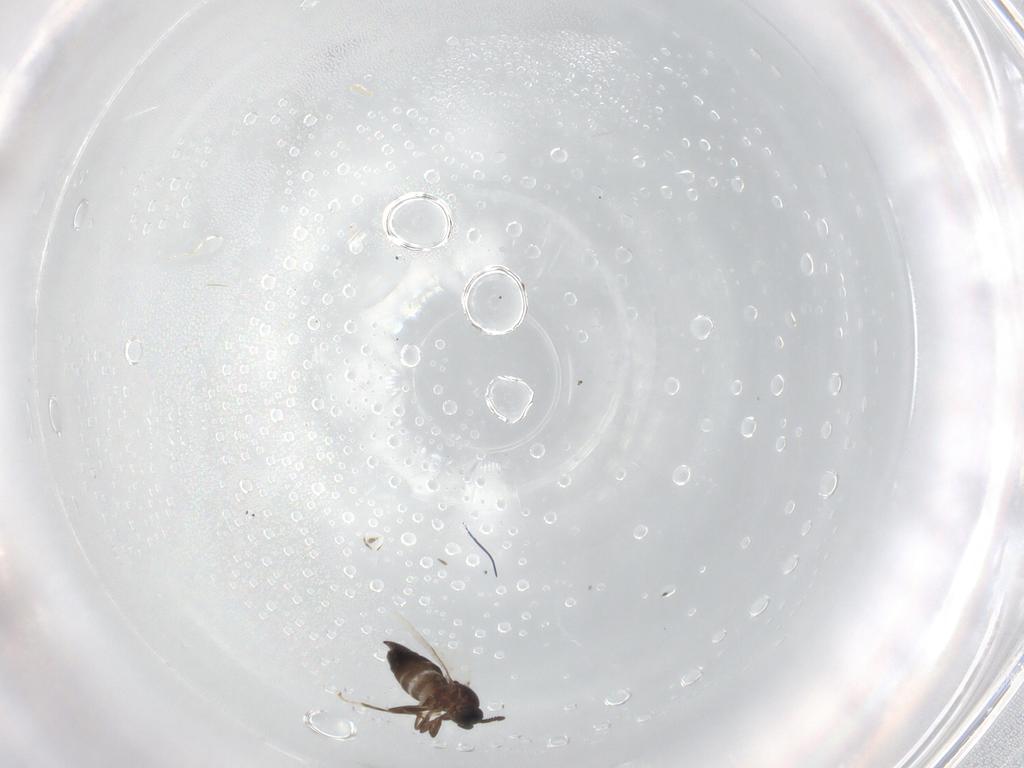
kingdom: Animalia
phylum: Arthropoda
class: Insecta
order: Diptera
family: Scatopsidae
